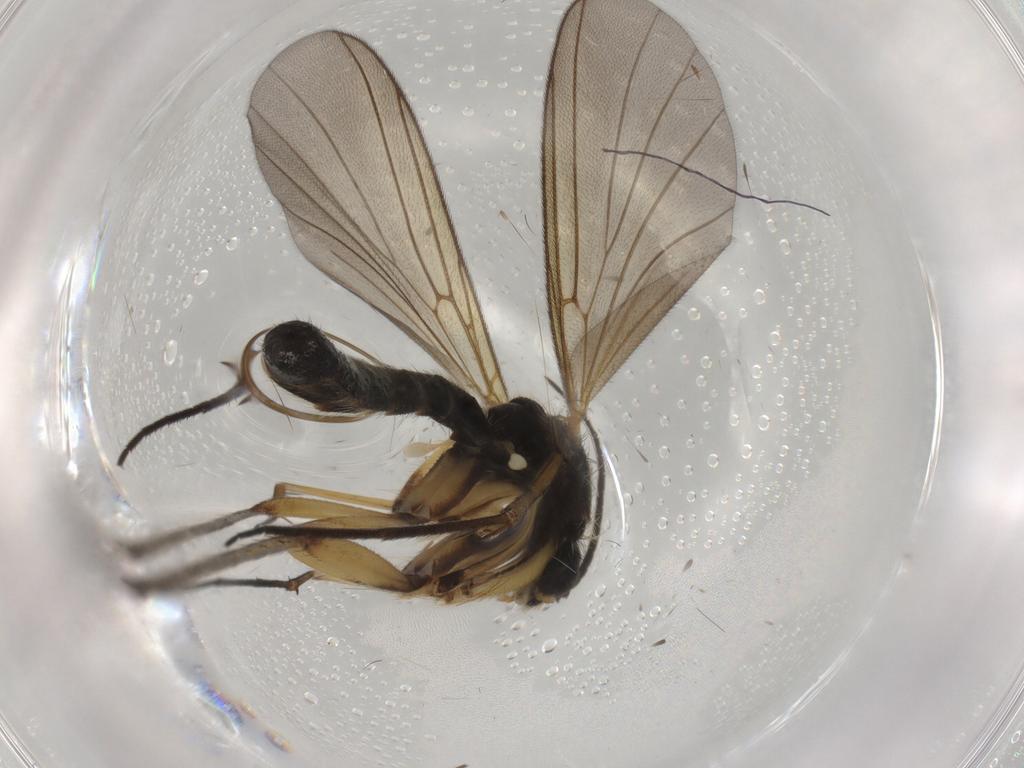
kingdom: Animalia
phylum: Arthropoda
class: Insecta
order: Diptera
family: Mycetophilidae
